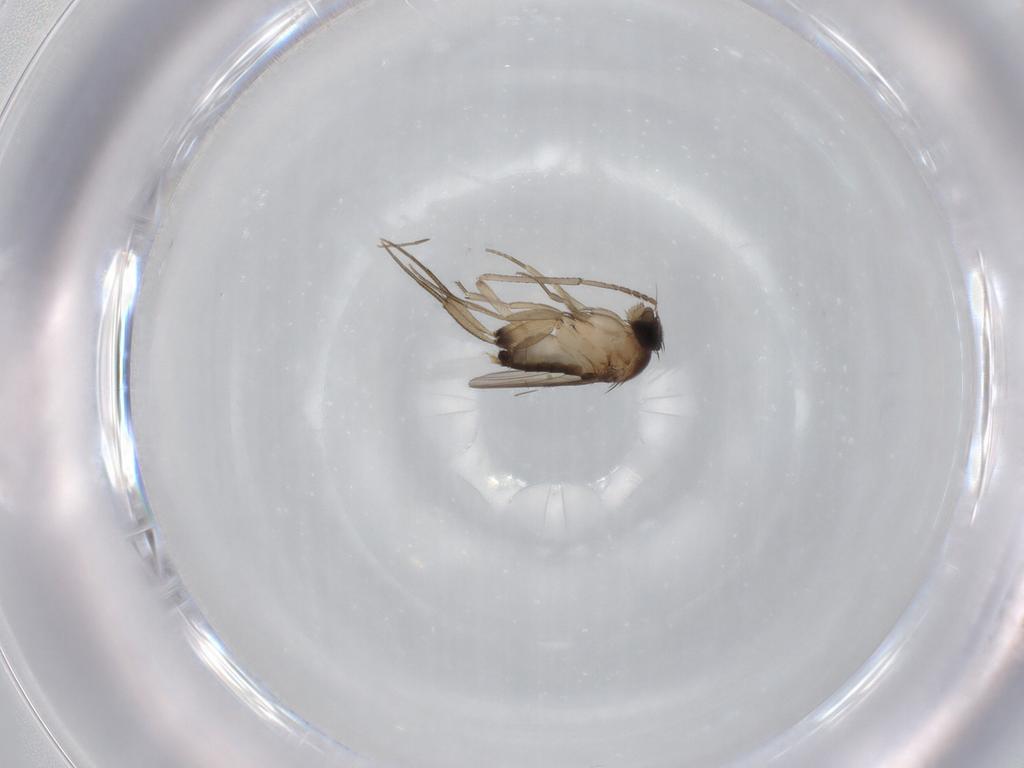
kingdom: Animalia
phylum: Arthropoda
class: Insecta
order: Diptera
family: Phoridae
